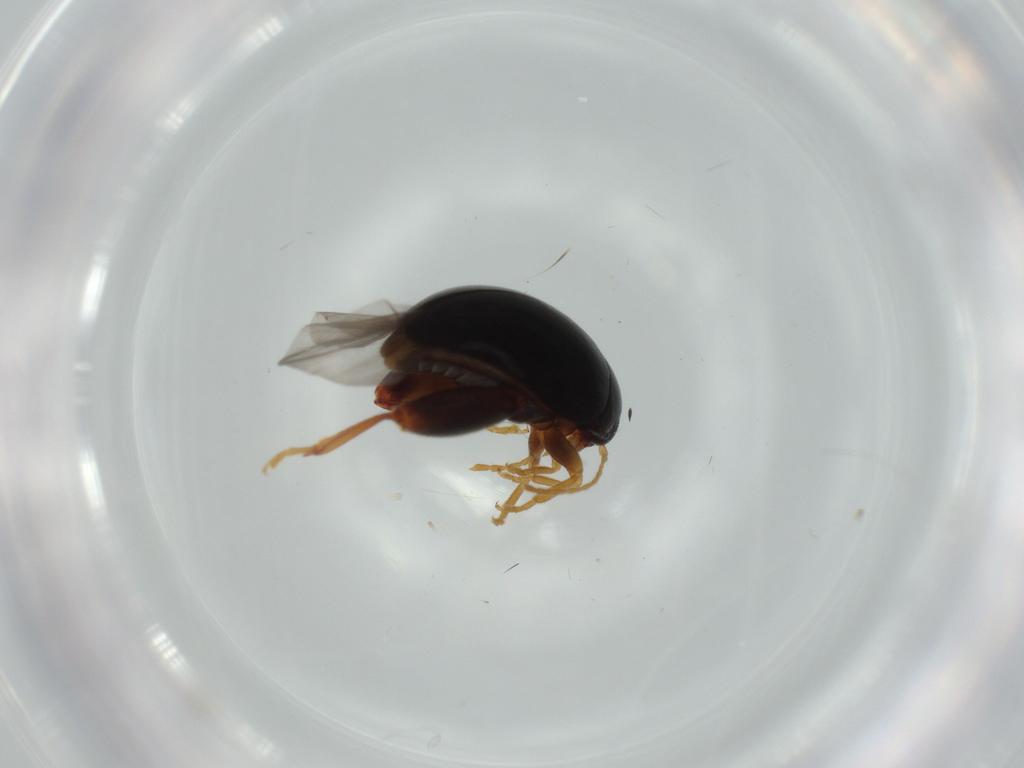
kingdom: Animalia
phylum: Arthropoda
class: Insecta
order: Coleoptera
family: Chrysomelidae
